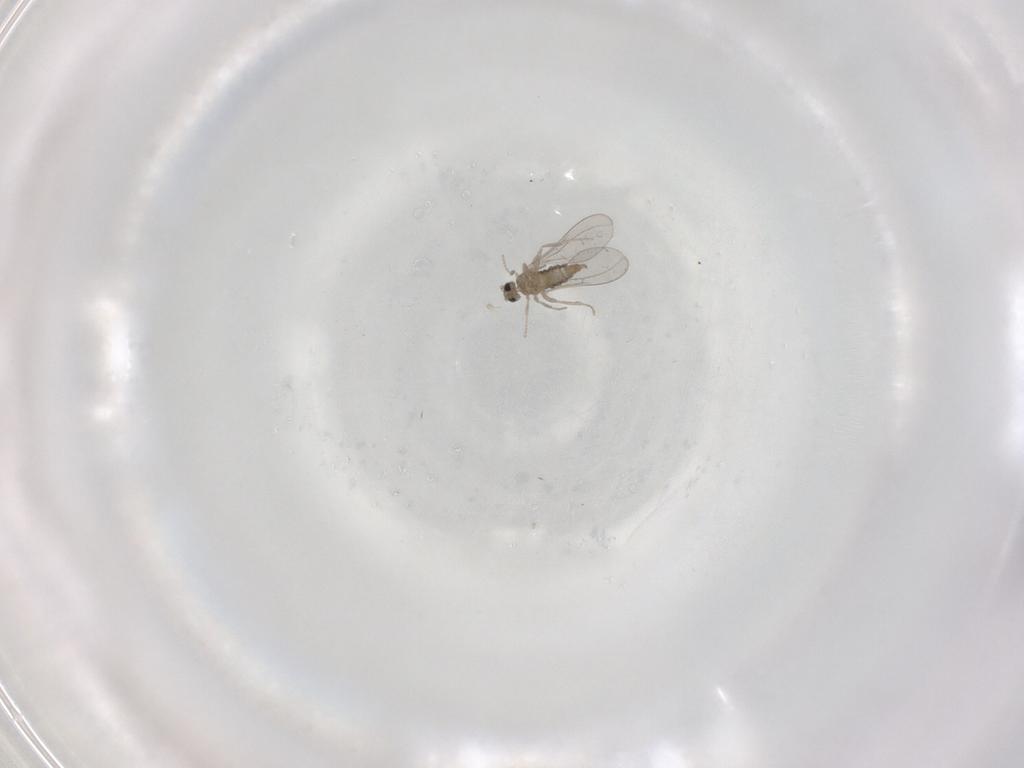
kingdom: Animalia
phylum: Arthropoda
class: Insecta
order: Diptera
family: Cecidomyiidae
